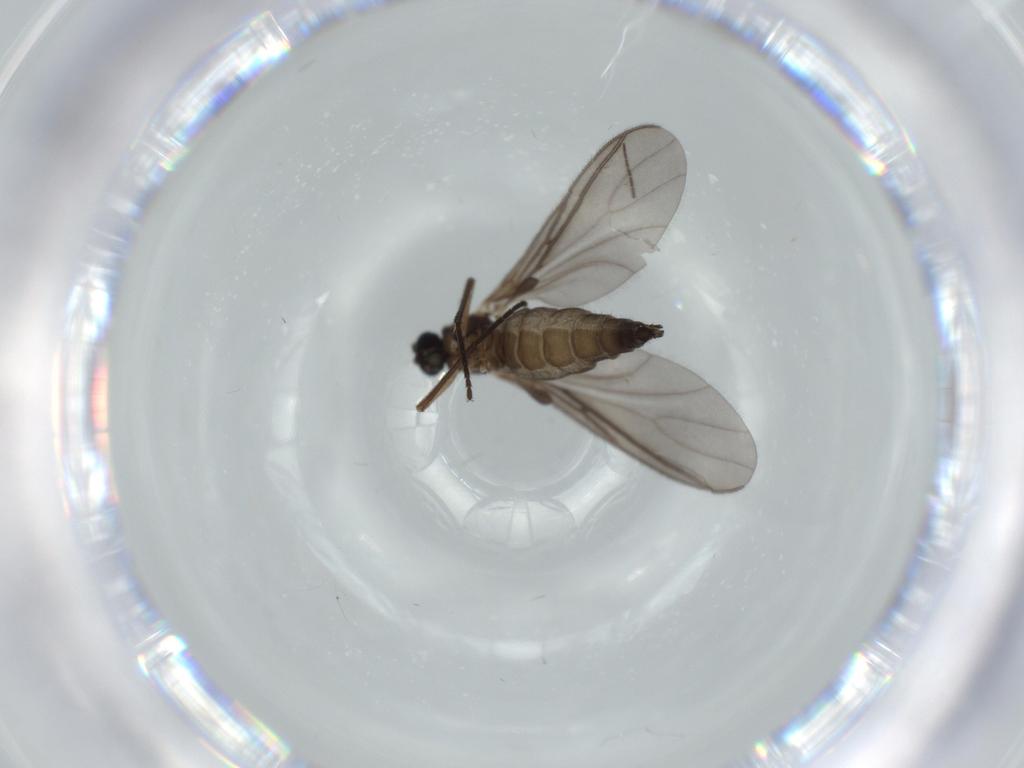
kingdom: Animalia
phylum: Arthropoda
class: Insecta
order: Diptera
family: Sciaridae
